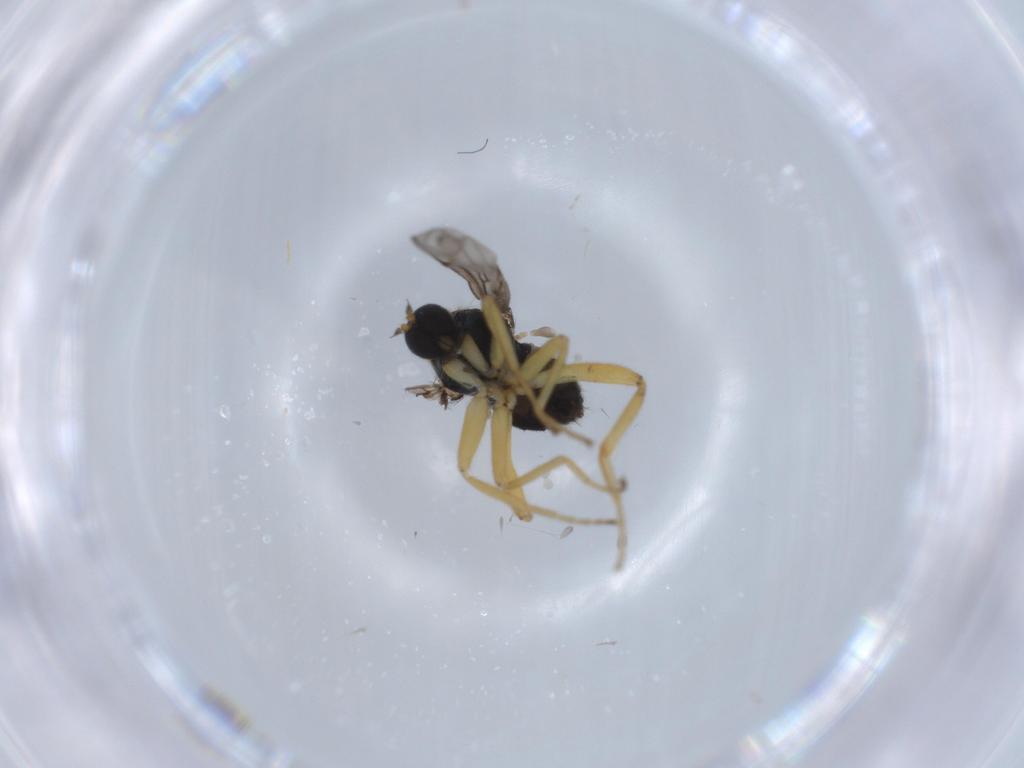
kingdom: Animalia
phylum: Arthropoda
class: Insecta
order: Diptera
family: Hybotidae
